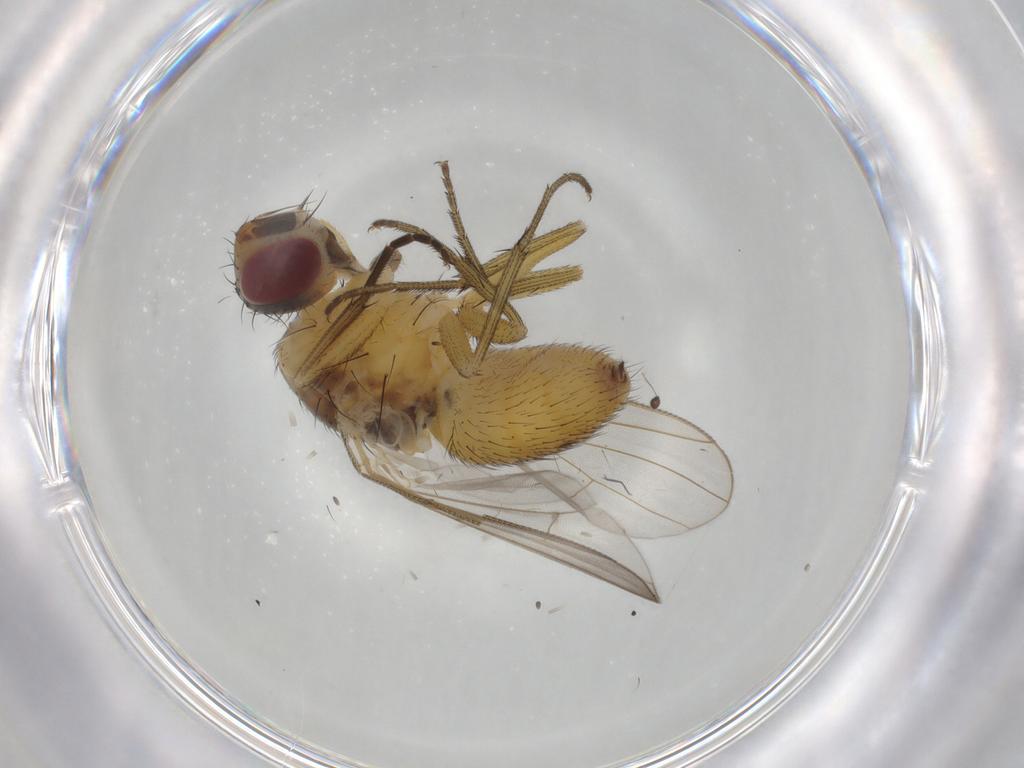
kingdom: Animalia
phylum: Arthropoda
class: Insecta
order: Diptera
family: Muscidae
